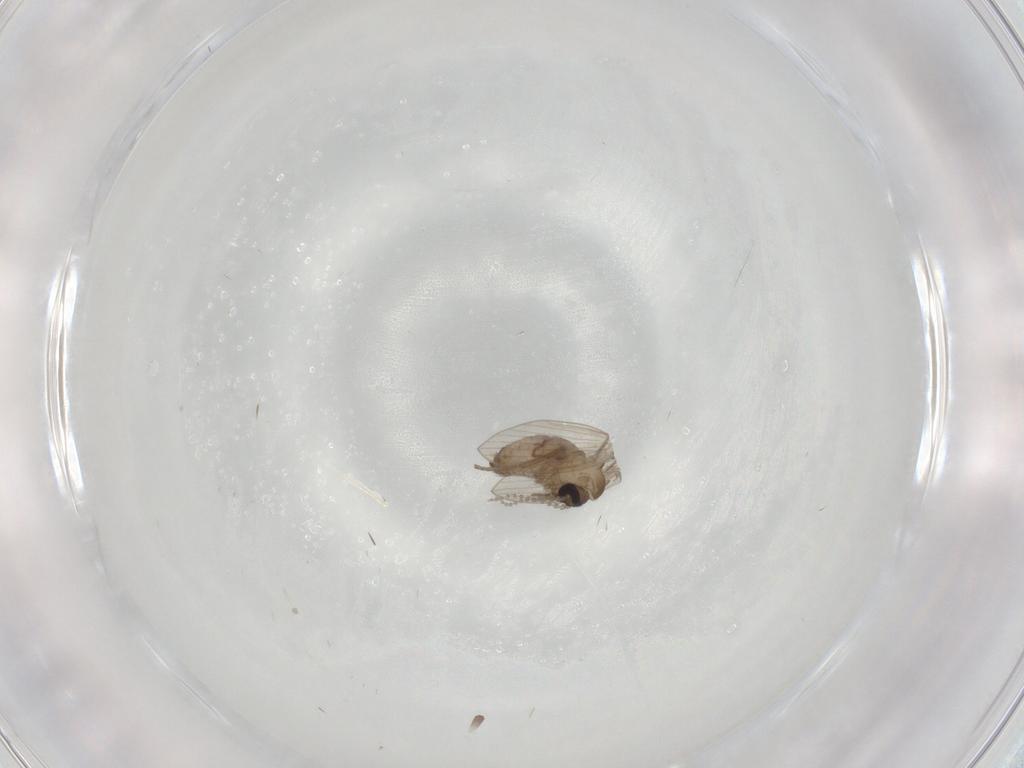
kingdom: Animalia
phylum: Arthropoda
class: Insecta
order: Diptera
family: Psychodidae
